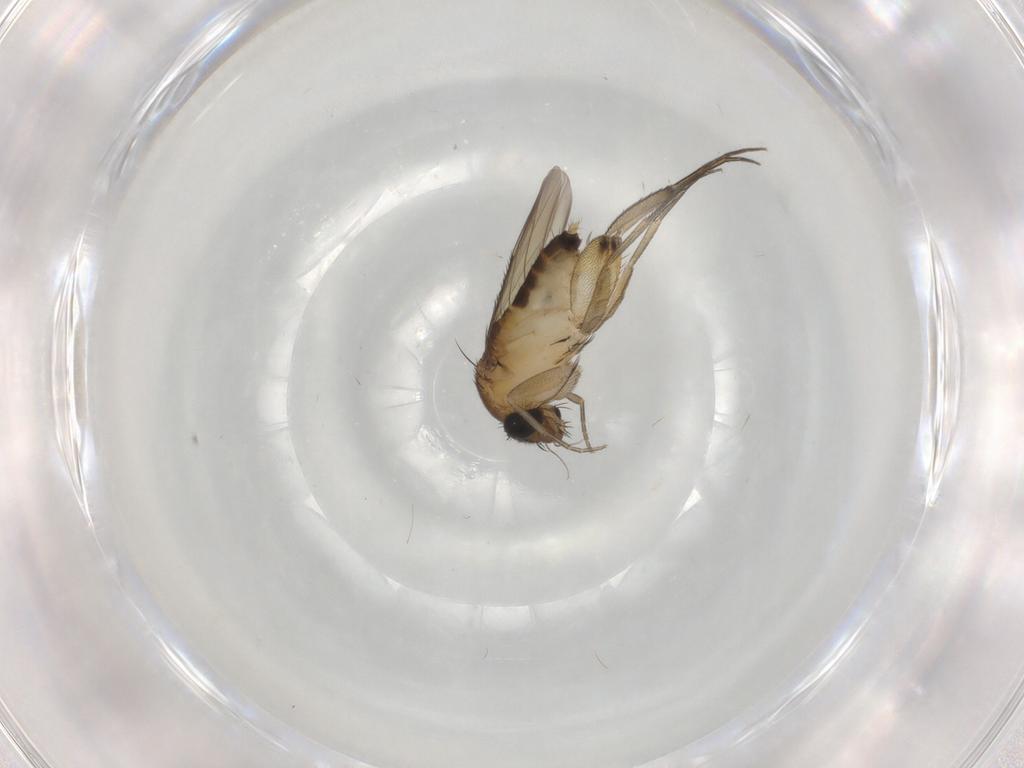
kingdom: Animalia
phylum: Arthropoda
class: Insecta
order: Diptera
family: Phoridae
